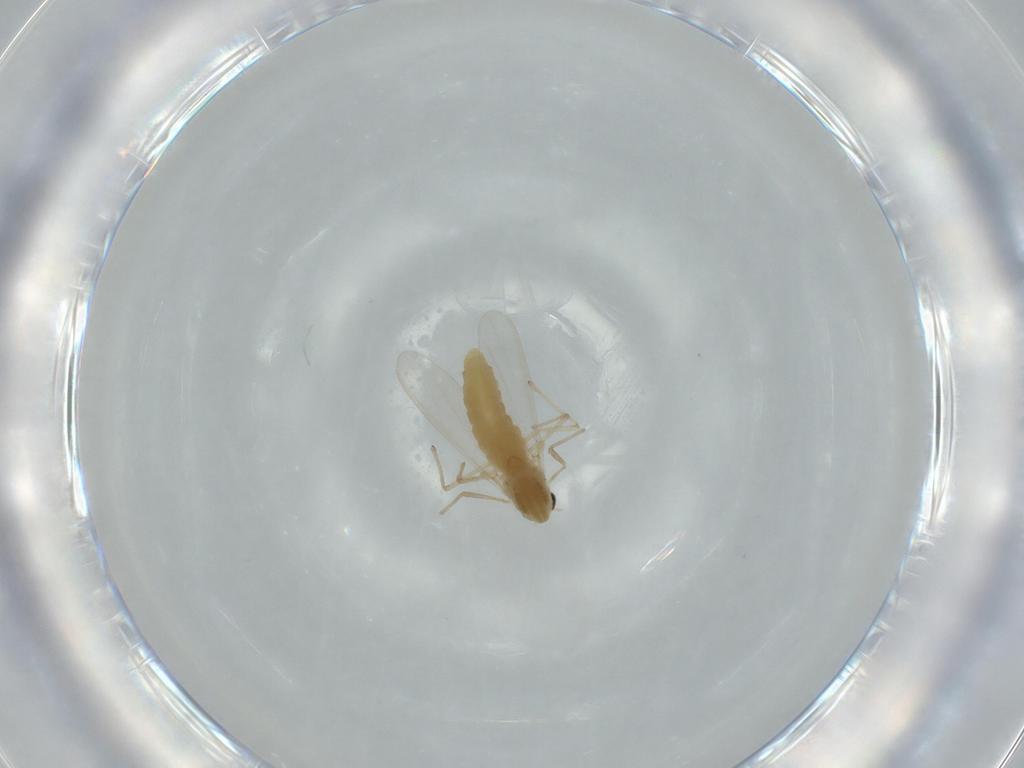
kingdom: Animalia
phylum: Arthropoda
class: Insecta
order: Diptera
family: Chironomidae
